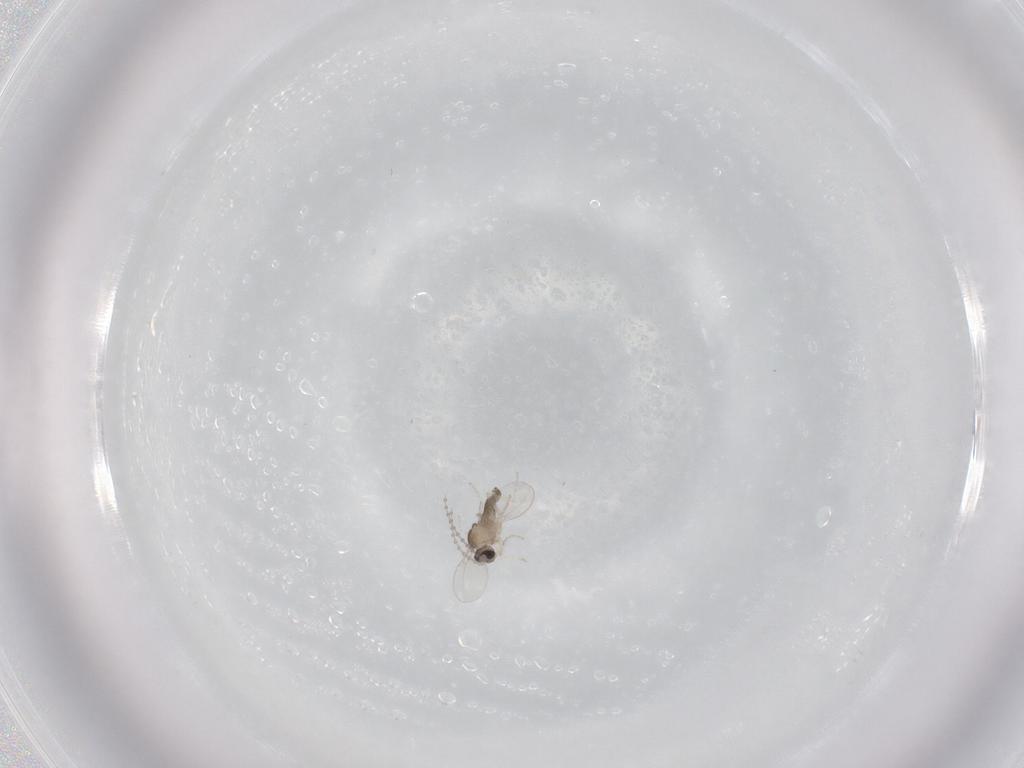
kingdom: Animalia
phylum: Arthropoda
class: Insecta
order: Diptera
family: Cecidomyiidae
